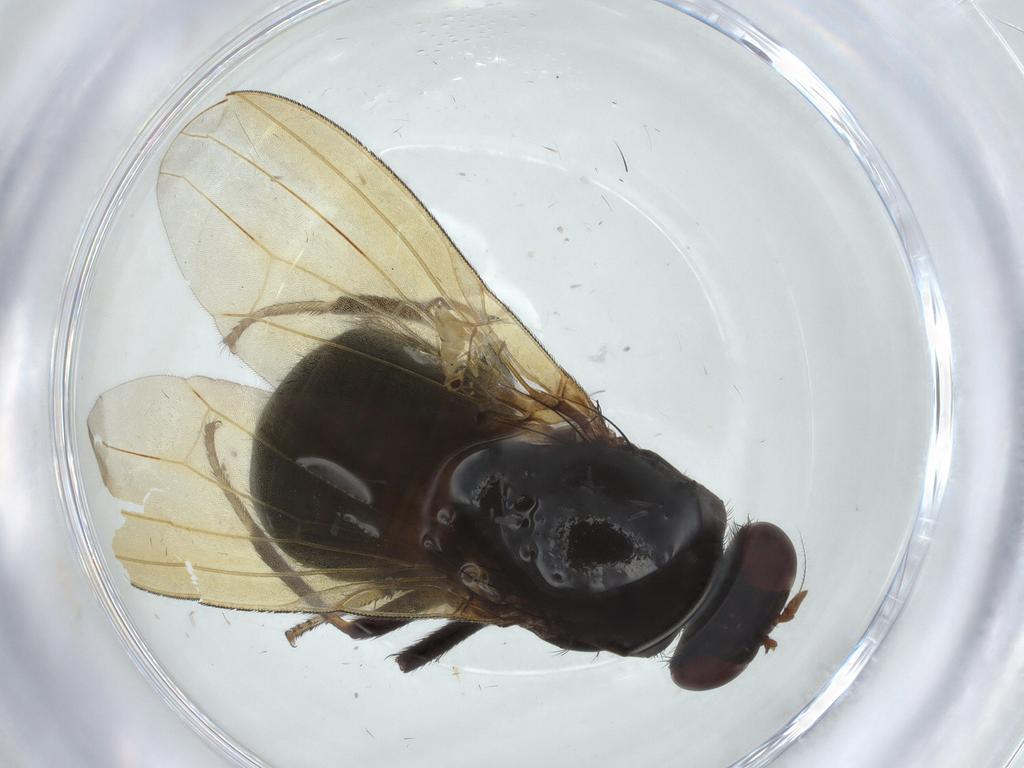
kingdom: Animalia
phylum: Arthropoda
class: Insecta
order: Diptera
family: Lauxaniidae
